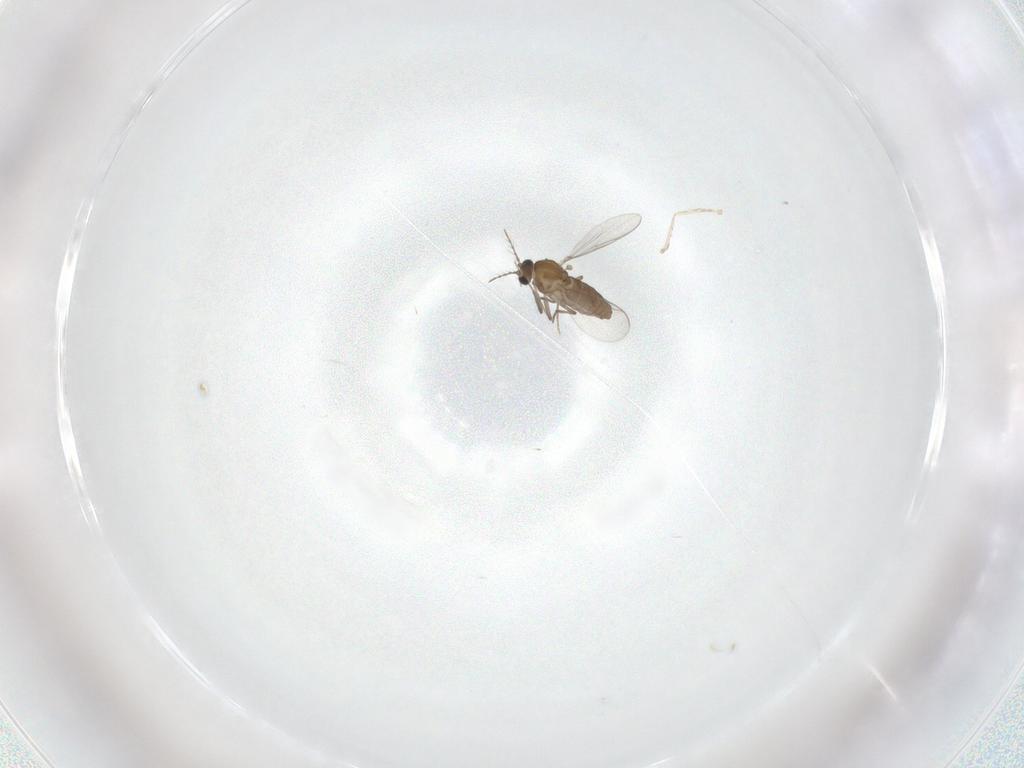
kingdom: Animalia
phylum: Arthropoda
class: Insecta
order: Diptera
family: Chironomidae
